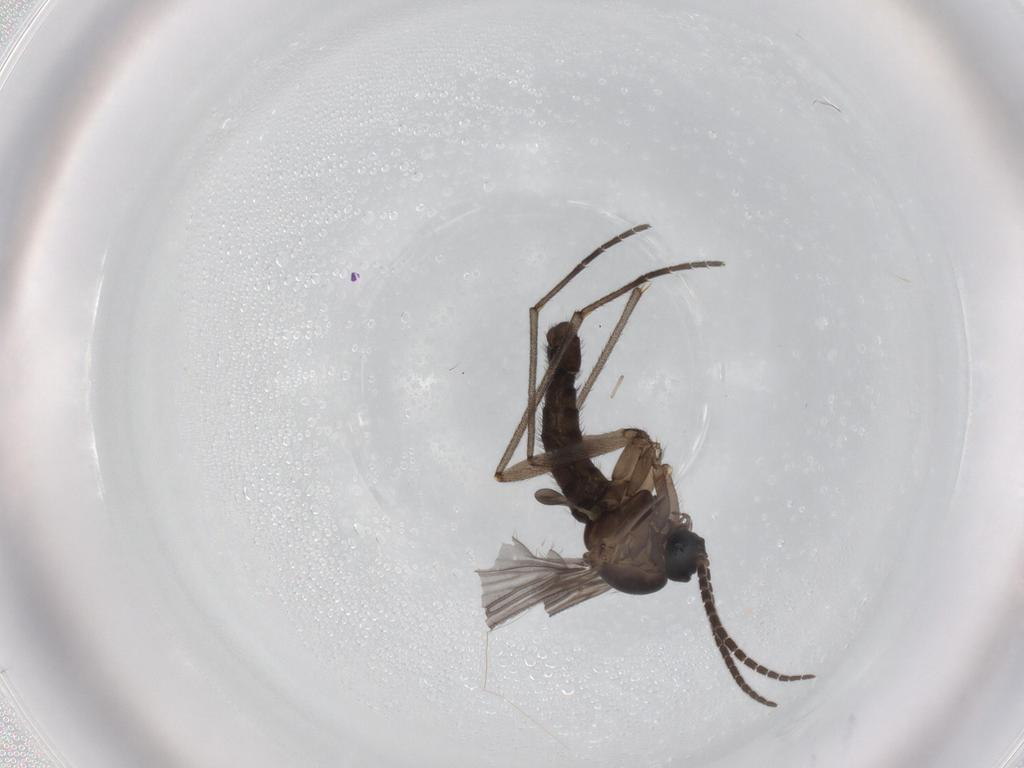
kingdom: Animalia
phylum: Arthropoda
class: Insecta
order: Diptera
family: Sciaridae
